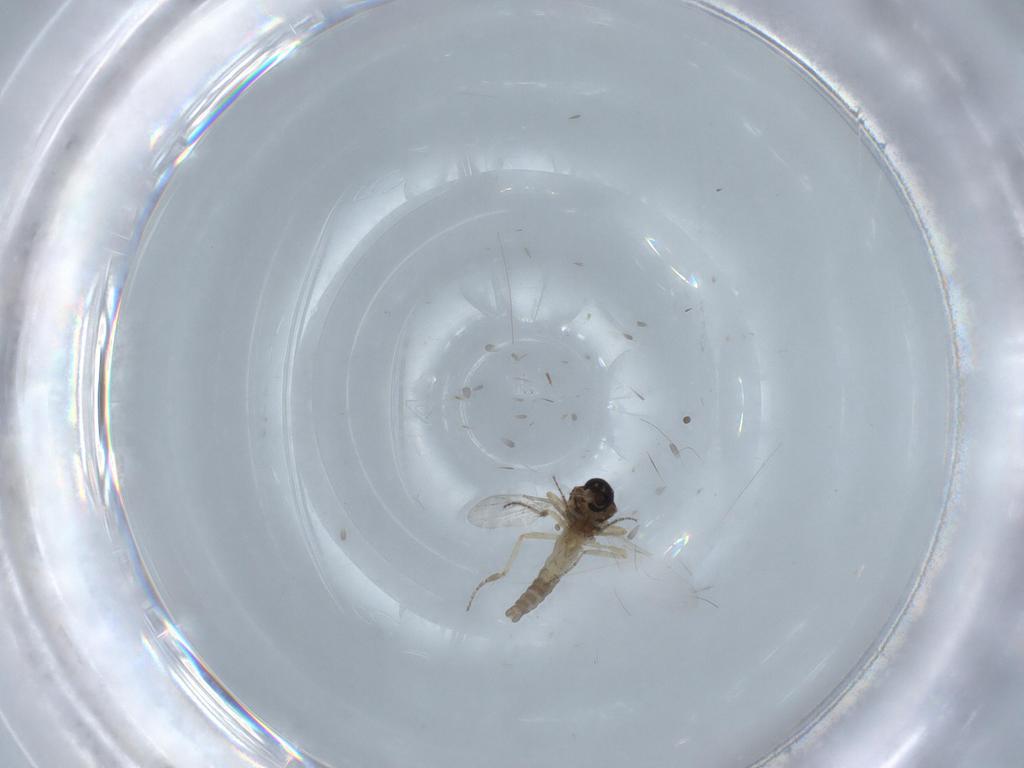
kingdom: Animalia
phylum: Arthropoda
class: Insecta
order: Diptera
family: Ceratopogonidae
